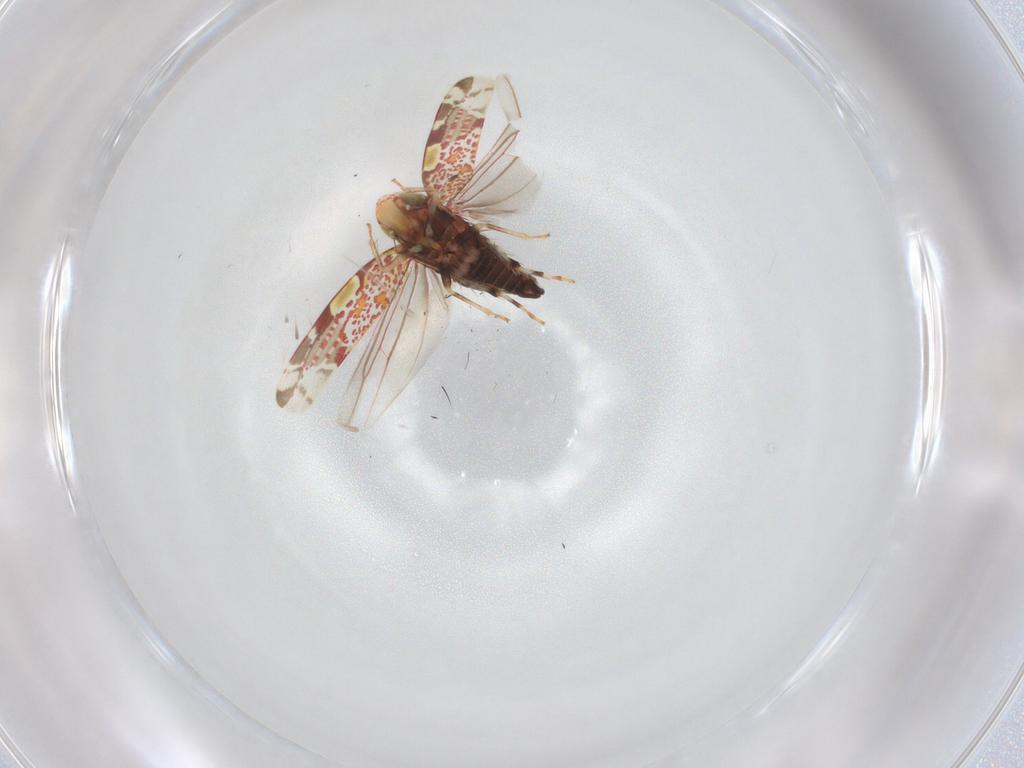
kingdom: Animalia
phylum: Arthropoda
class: Insecta
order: Hemiptera
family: Cicadellidae
